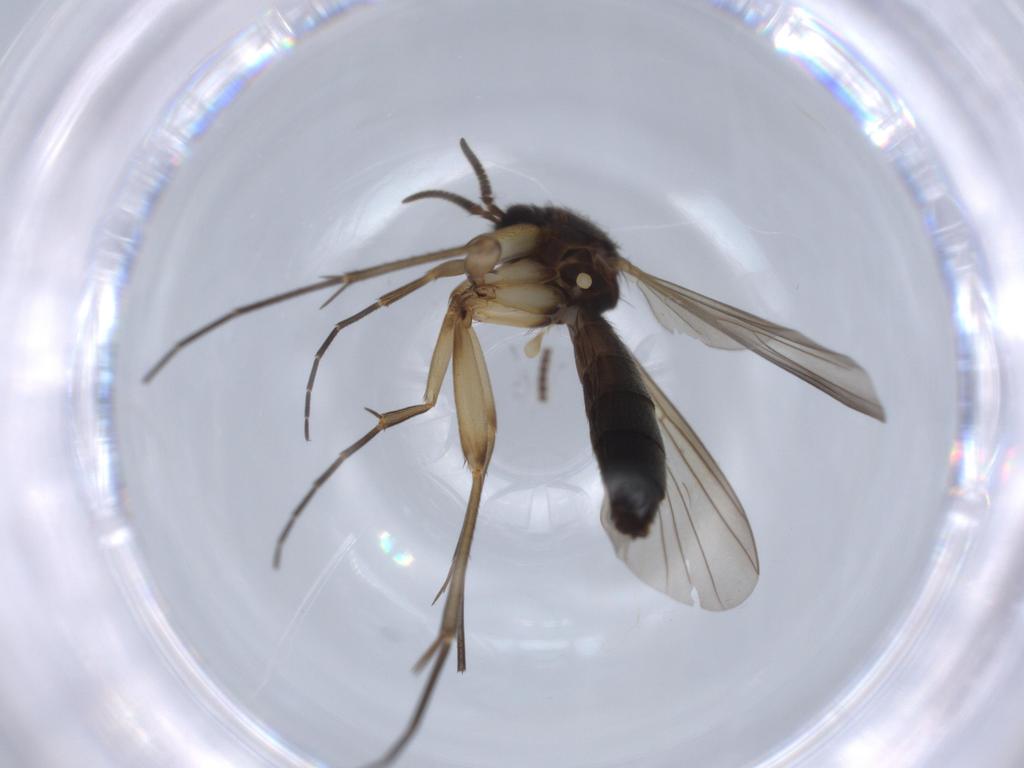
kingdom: Animalia
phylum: Arthropoda
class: Insecta
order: Diptera
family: Mycetophilidae
